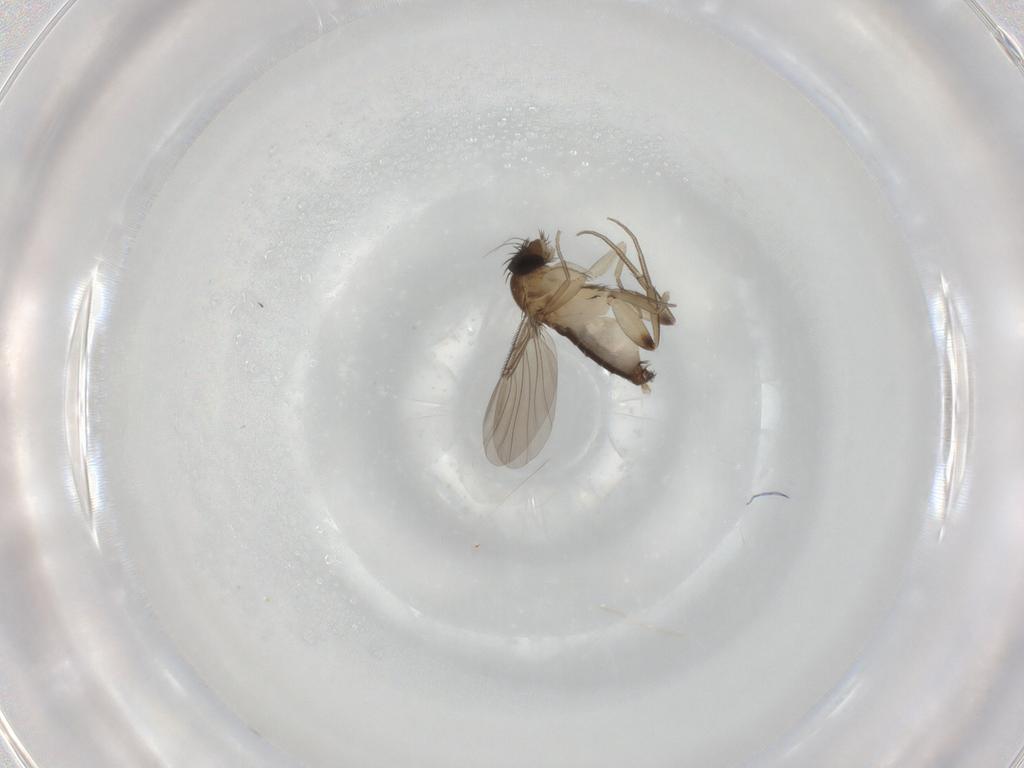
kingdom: Animalia
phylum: Arthropoda
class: Insecta
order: Diptera
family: Phoridae
